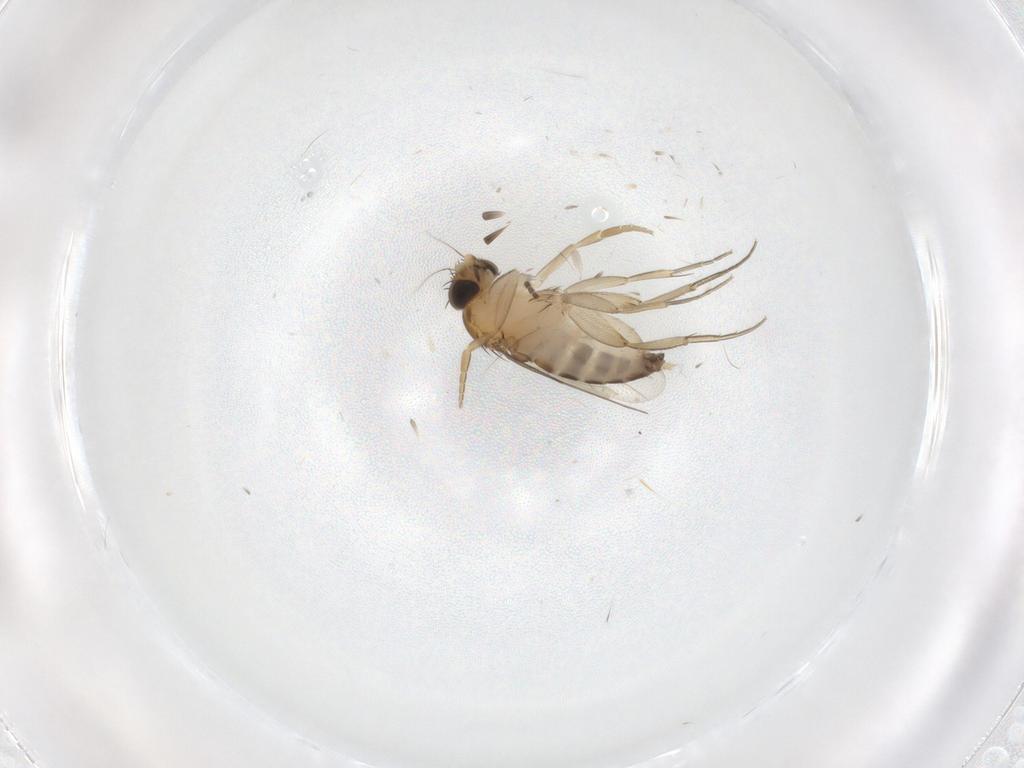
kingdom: Animalia
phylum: Arthropoda
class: Insecta
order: Diptera
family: Phoridae
